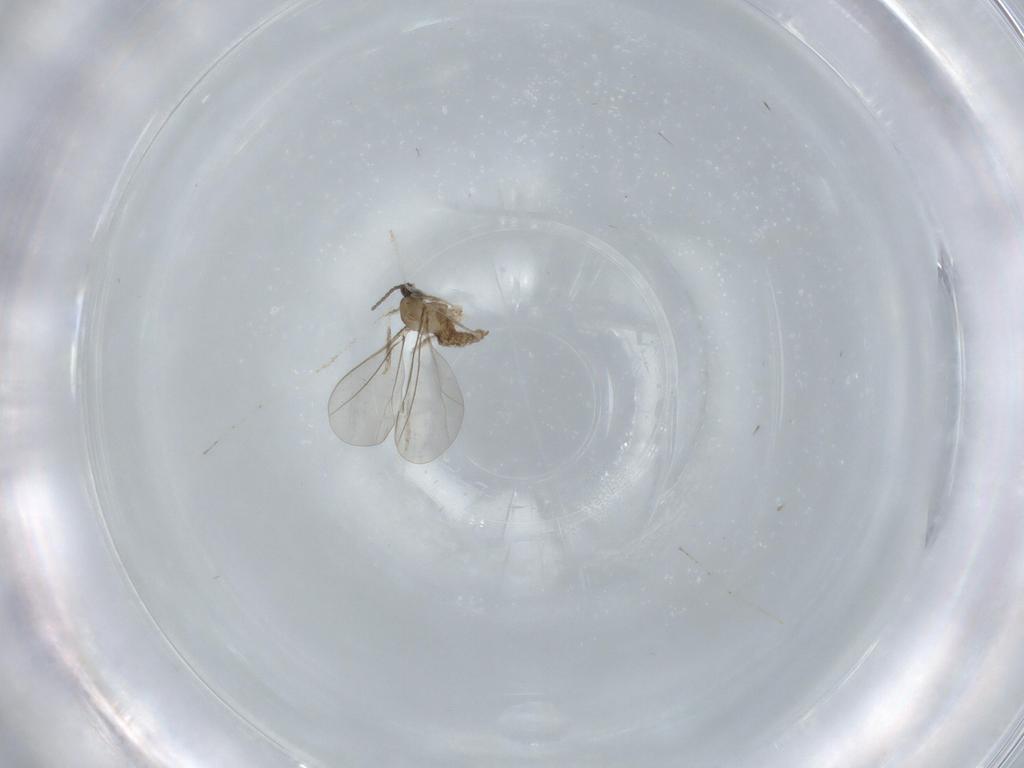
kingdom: Animalia
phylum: Arthropoda
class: Insecta
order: Diptera
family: Cecidomyiidae
